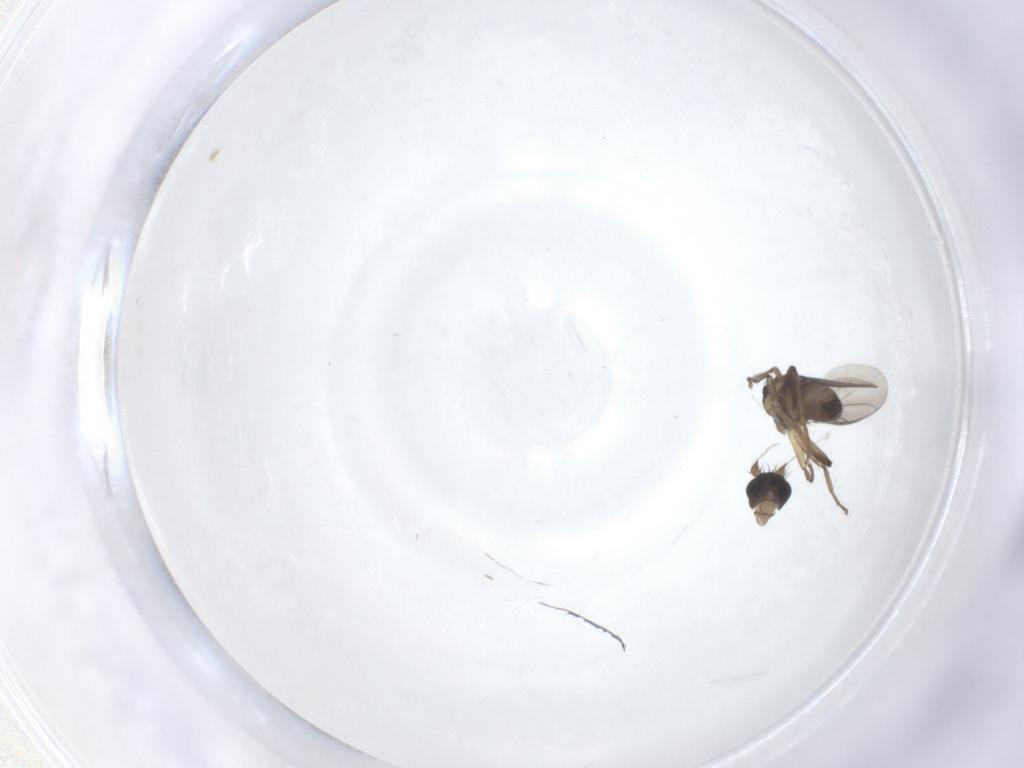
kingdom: Animalia
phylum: Arthropoda
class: Insecta
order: Diptera
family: Sphaeroceridae
